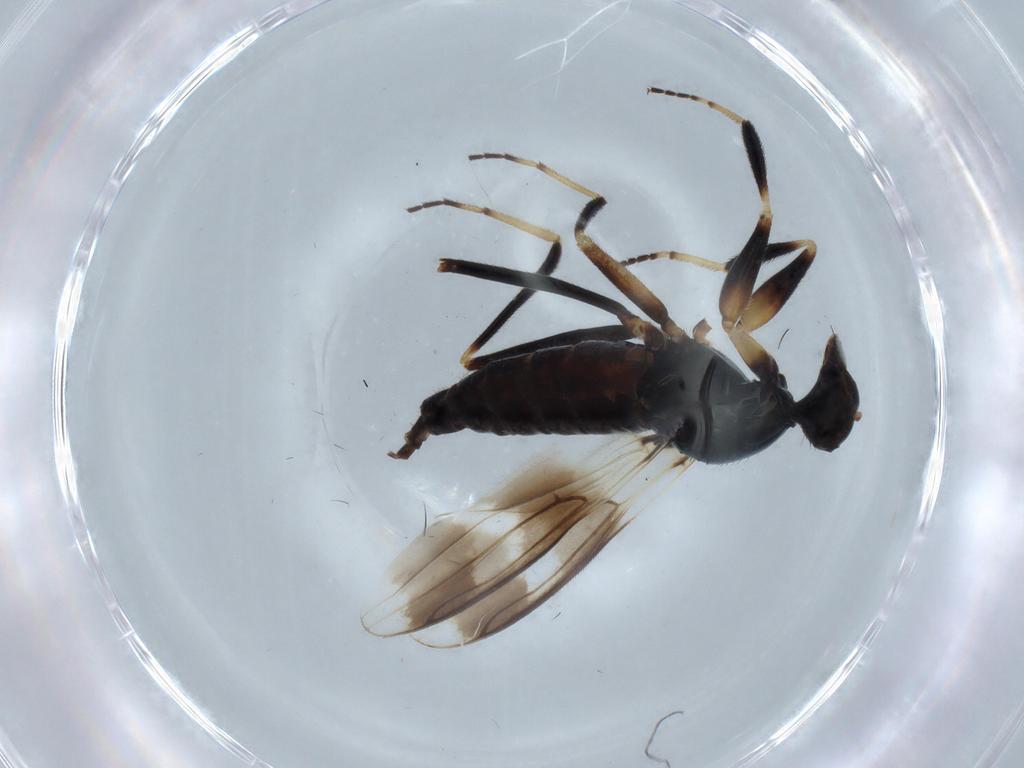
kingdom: Animalia
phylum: Arthropoda
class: Insecta
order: Diptera
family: Hybotidae
